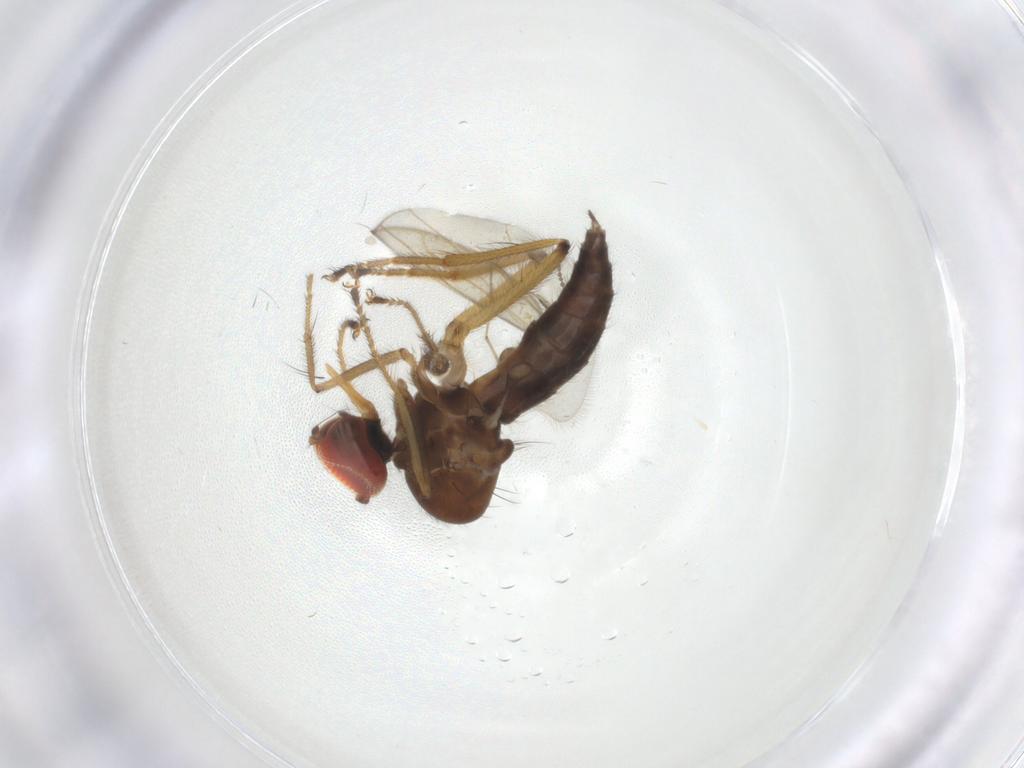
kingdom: Animalia
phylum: Arthropoda
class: Insecta
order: Diptera
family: Hybotidae
